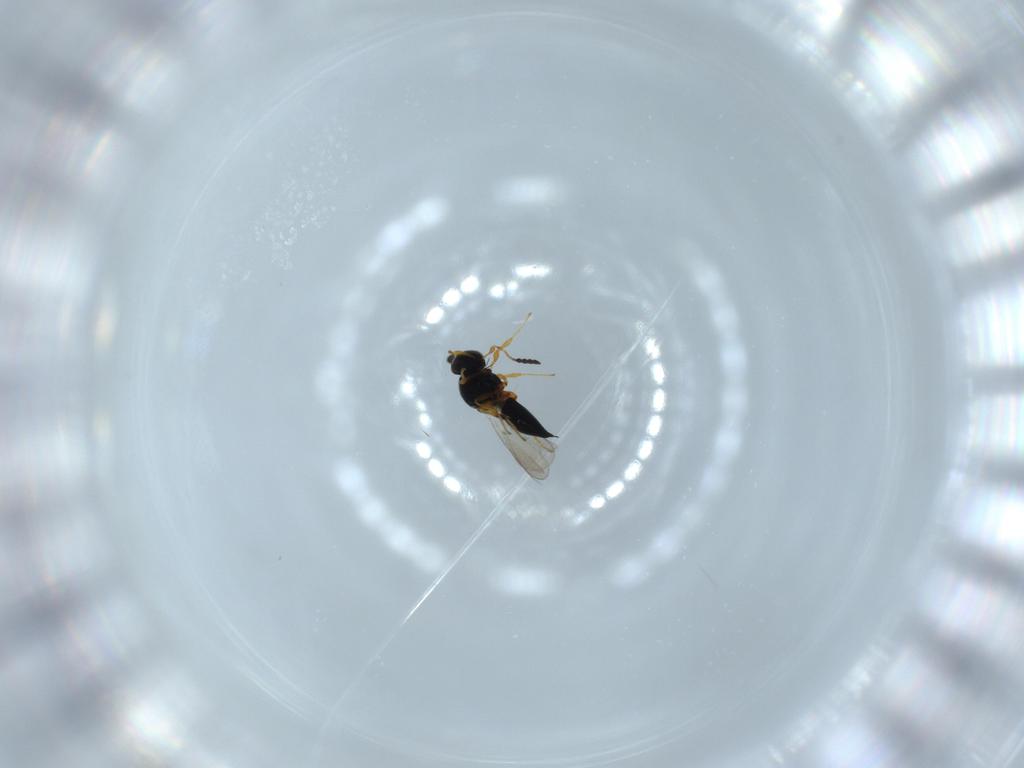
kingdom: Animalia
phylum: Arthropoda
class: Insecta
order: Hymenoptera
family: Platygastridae
